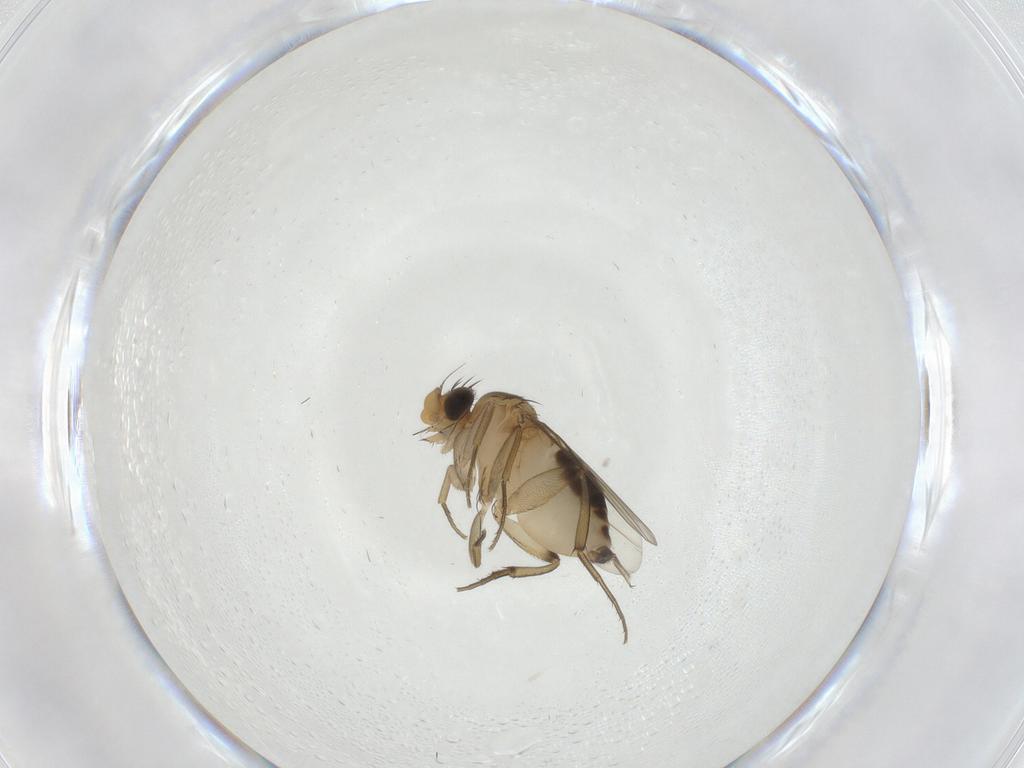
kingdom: Animalia
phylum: Arthropoda
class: Insecta
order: Diptera
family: Phoridae
